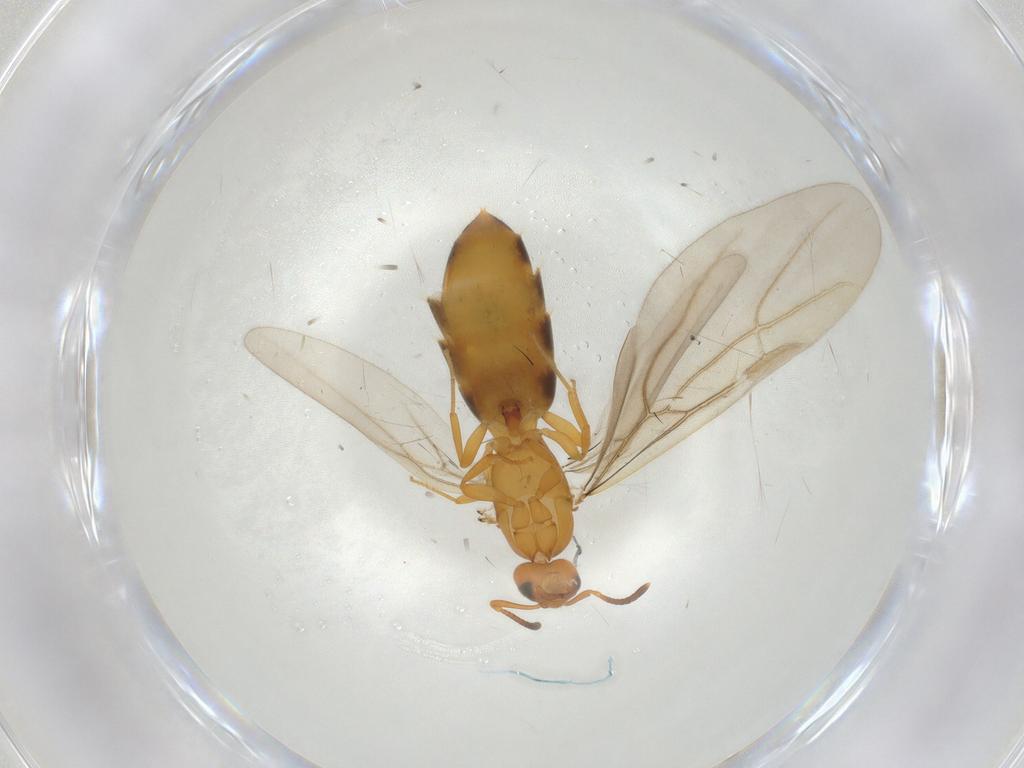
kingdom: Animalia
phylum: Arthropoda
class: Insecta
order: Hymenoptera
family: Formicidae
